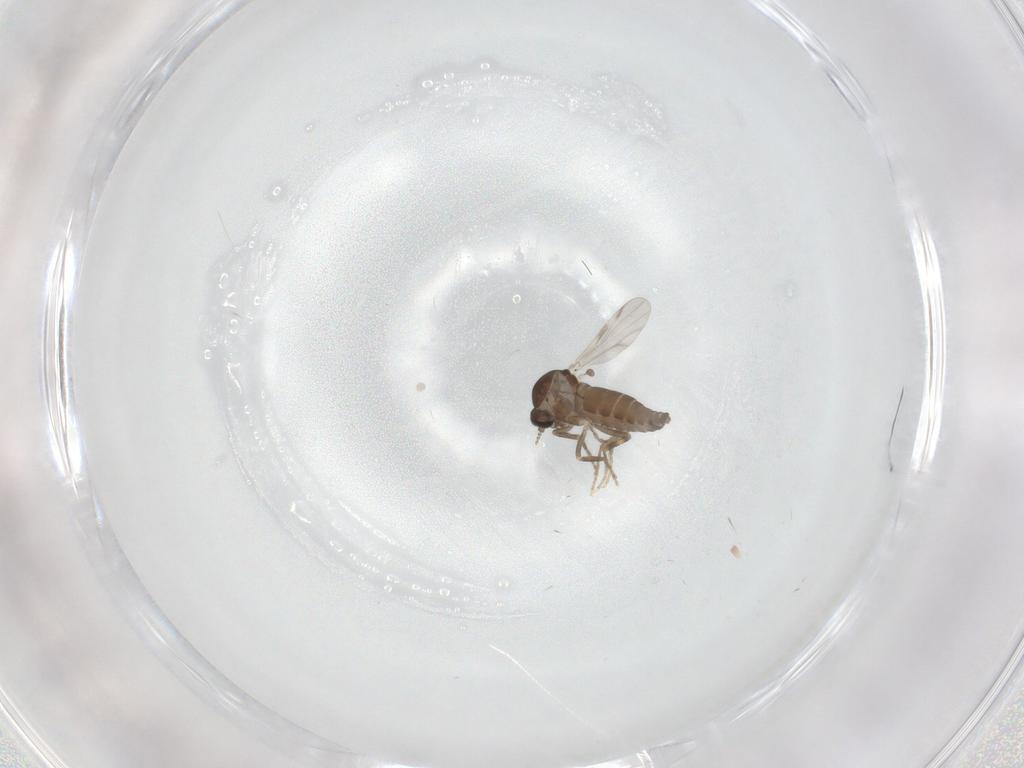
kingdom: Animalia
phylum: Arthropoda
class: Insecta
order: Diptera
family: Ceratopogonidae
